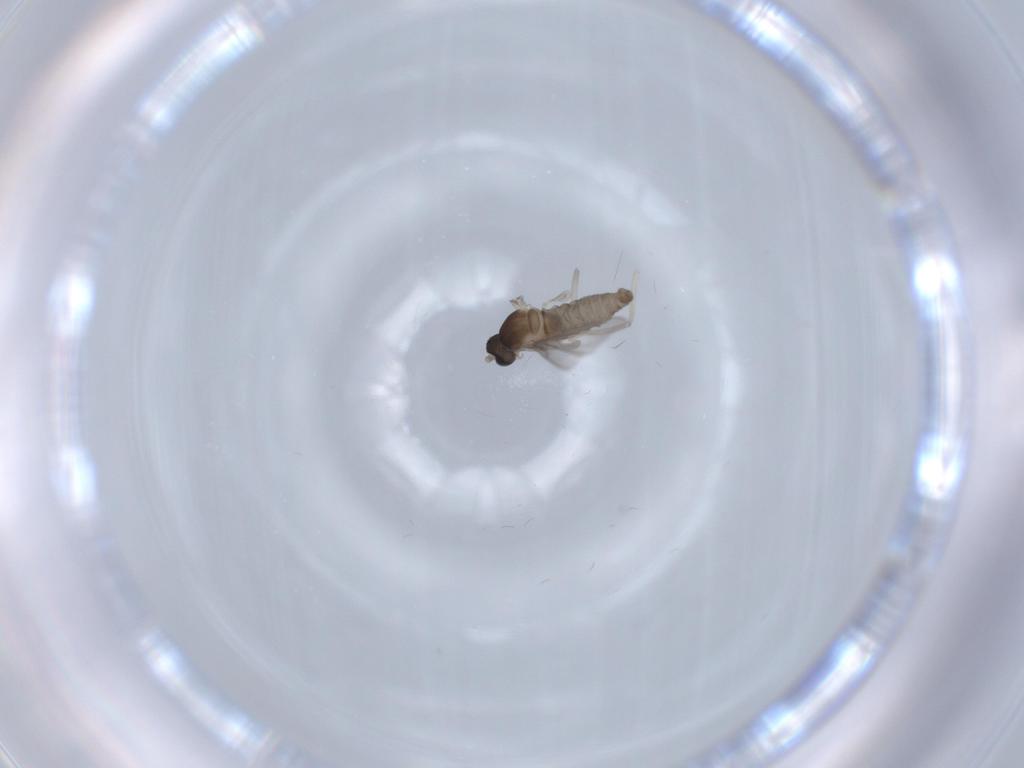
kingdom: Animalia
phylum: Arthropoda
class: Insecta
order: Diptera
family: Cecidomyiidae
